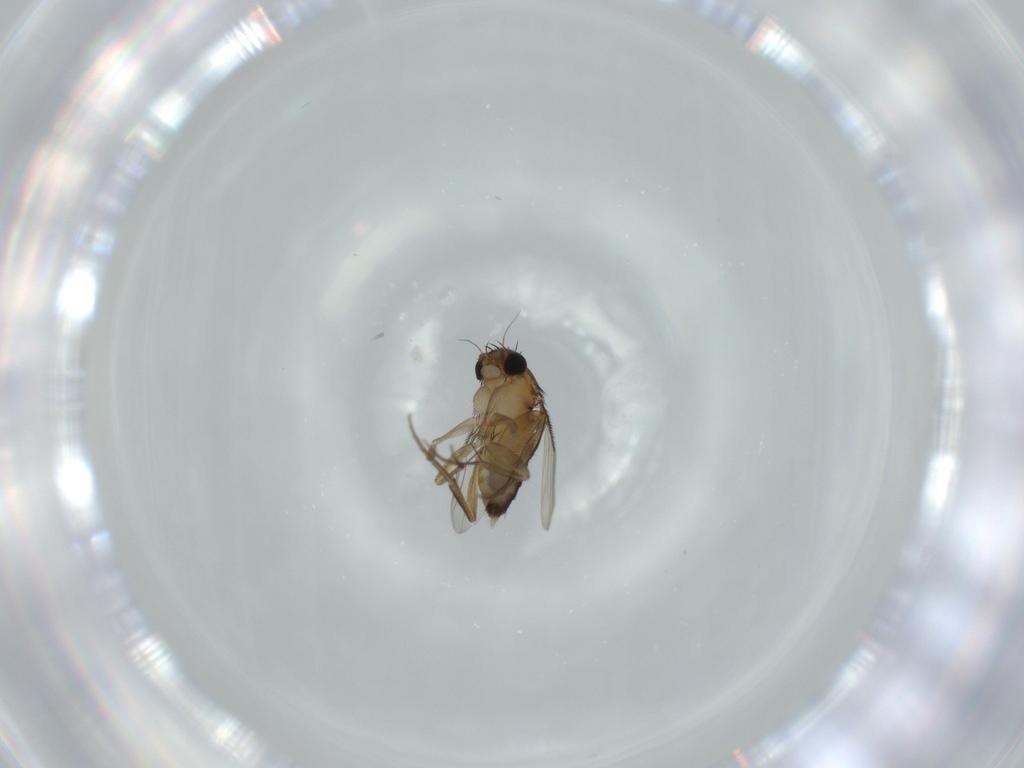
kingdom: Animalia
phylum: Arthropoda
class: Insecta
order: Diptera
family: Phoridae
